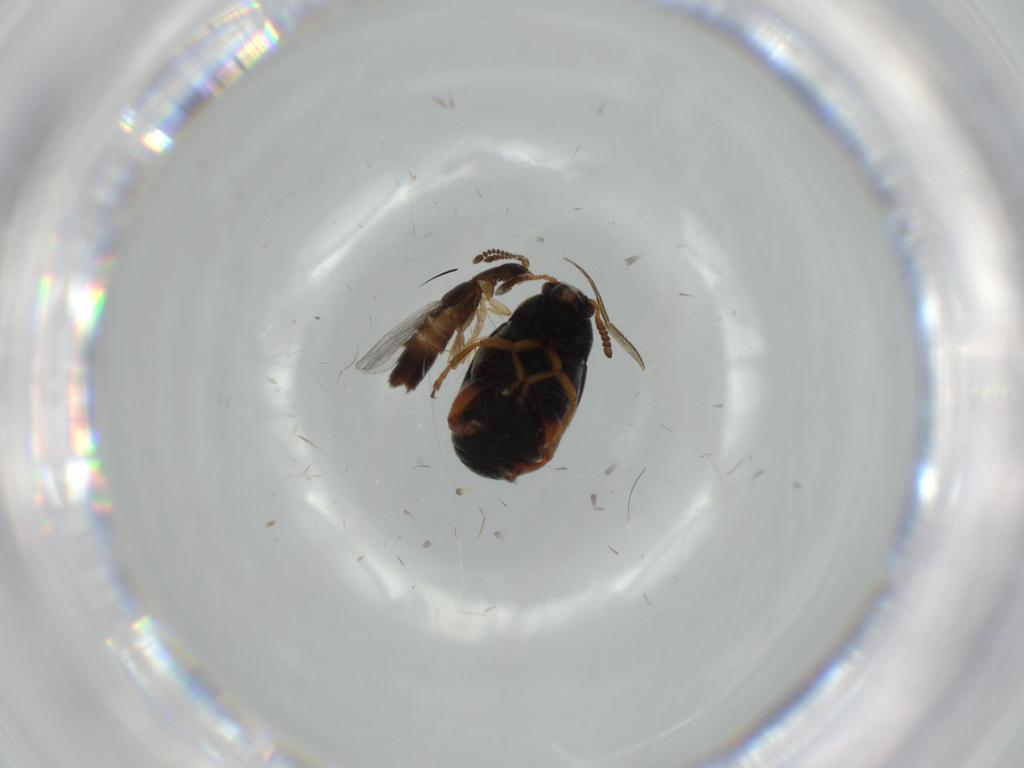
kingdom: Animalia
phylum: Arthropoda
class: Insecta
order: Coleoptera
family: Chrysomelidae
